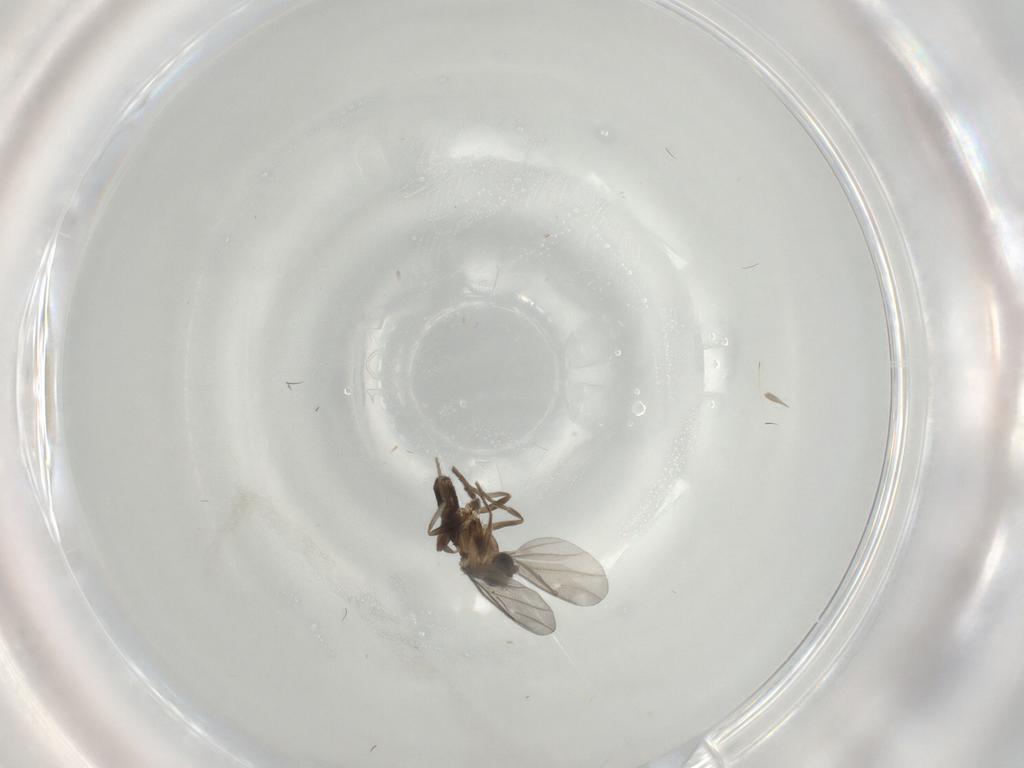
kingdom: Animalia
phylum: Arthropoda
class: Insecta
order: Diptera
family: Phoridae
